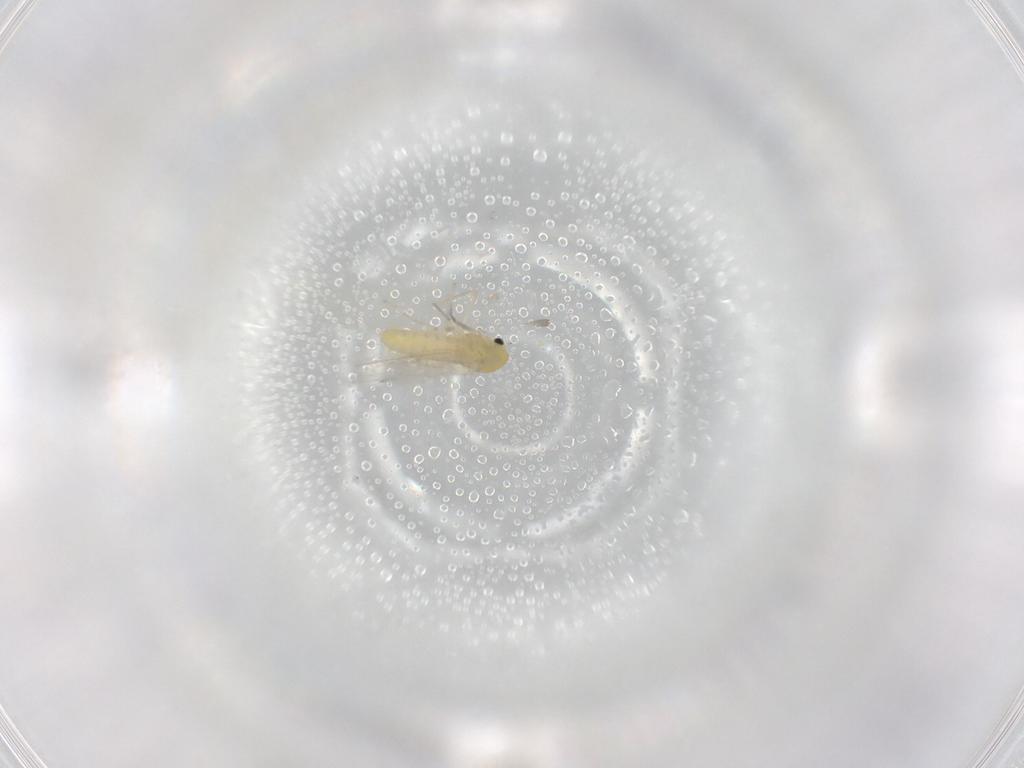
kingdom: Animalia
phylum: Arthropoda
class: Insecta
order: Diptera
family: Chironomidae
